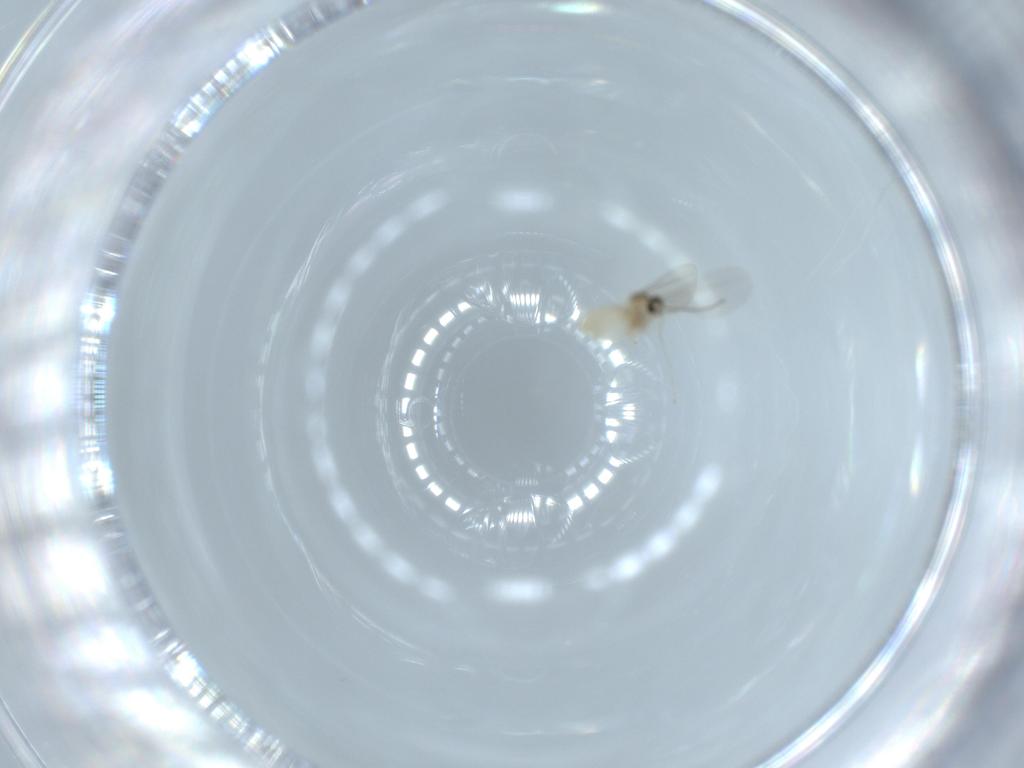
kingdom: Animalia
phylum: Arthropoda
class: Insecta
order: Diptera
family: Cecidomyiidae
